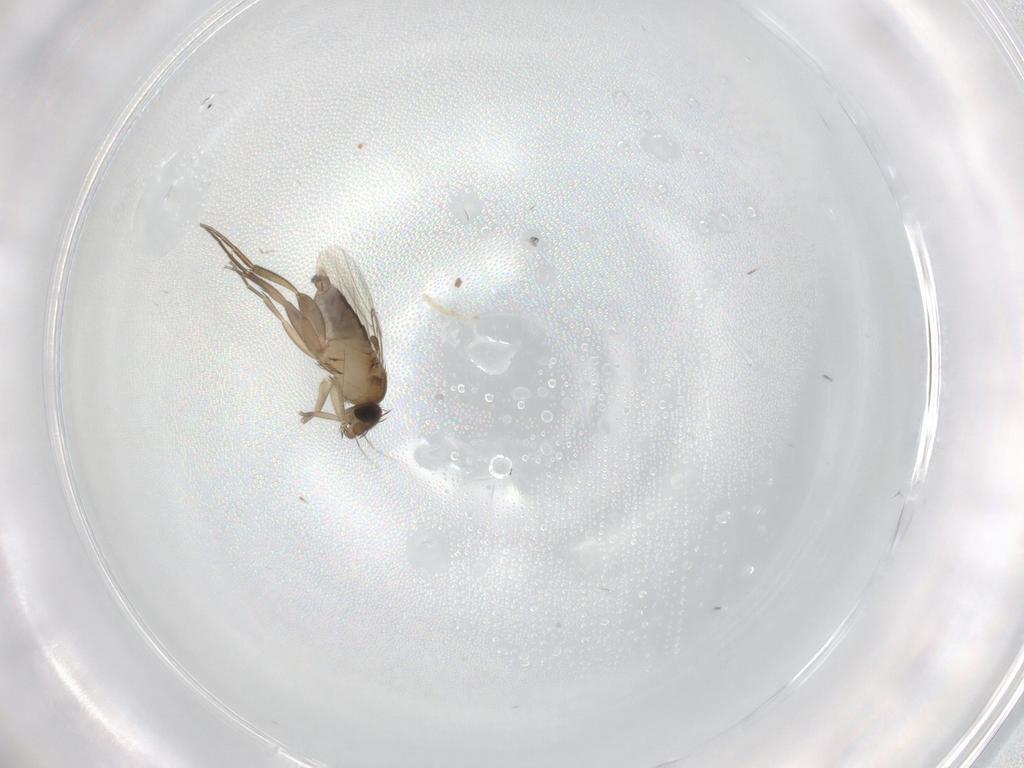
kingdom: Animalia
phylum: Arthropoda
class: Insecta
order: Diptera
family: Phoridae
